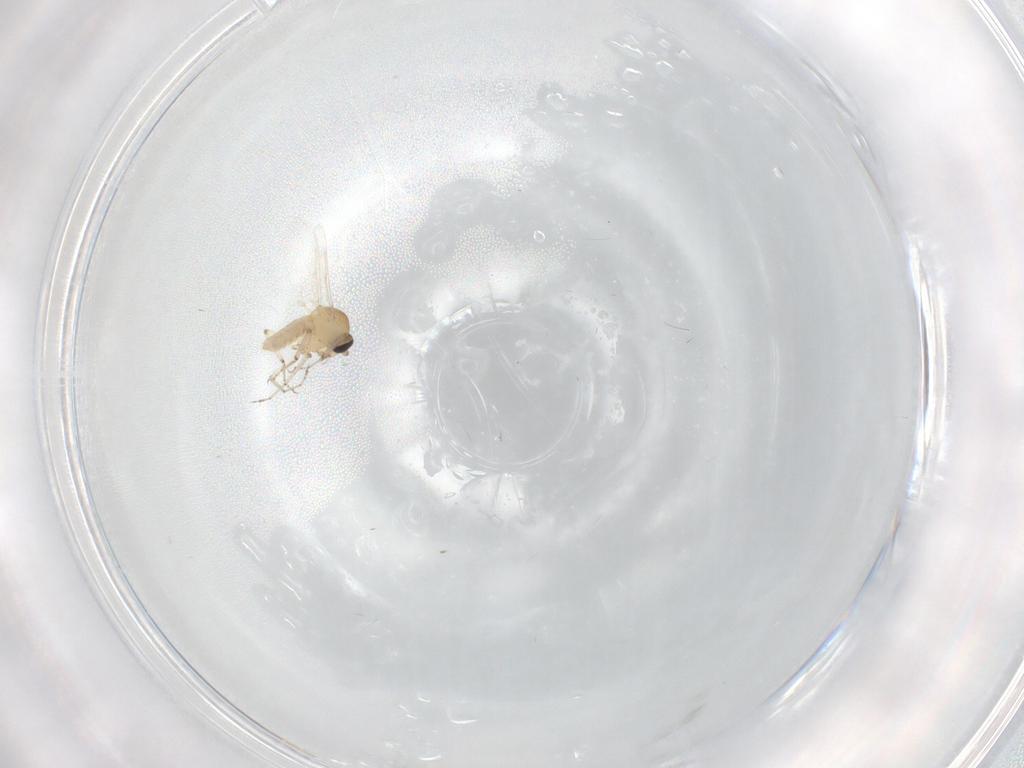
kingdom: Animalia
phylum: Arthropoda
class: Insecta
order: Diptera
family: Ceratopogonidae
